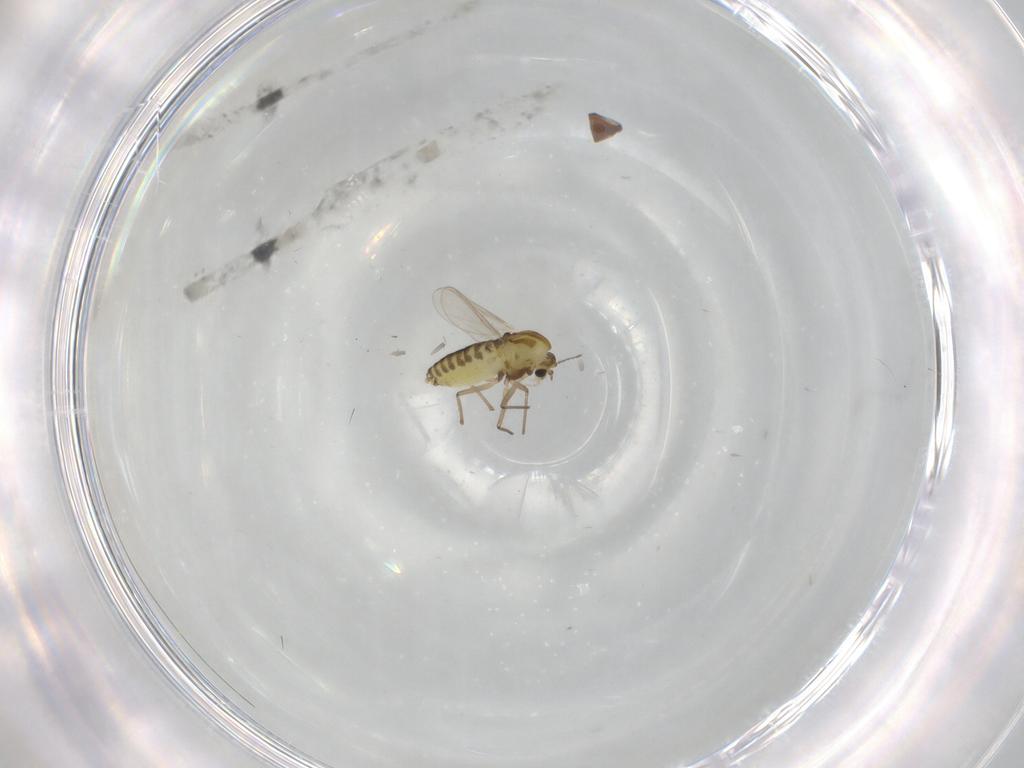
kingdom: Animalia
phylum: Arthropoda
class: Insecta
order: Diptera
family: Chironomidae
